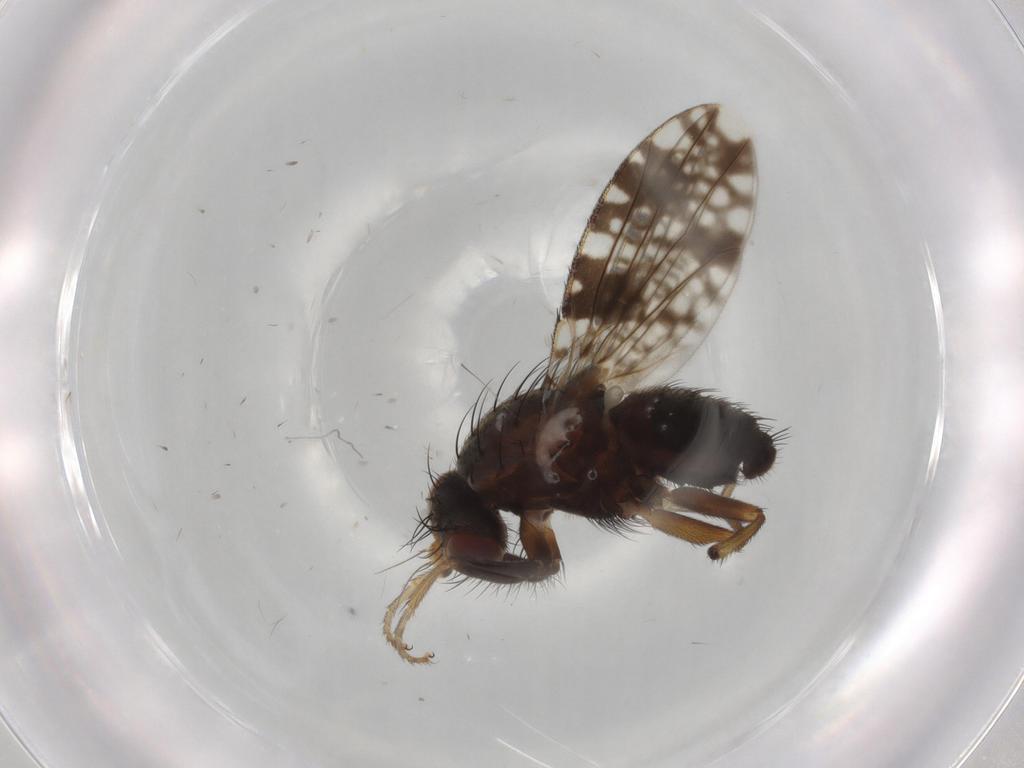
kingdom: Animalia
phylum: Arthropoda
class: Insecta
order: Diptera
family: Tephritidae
